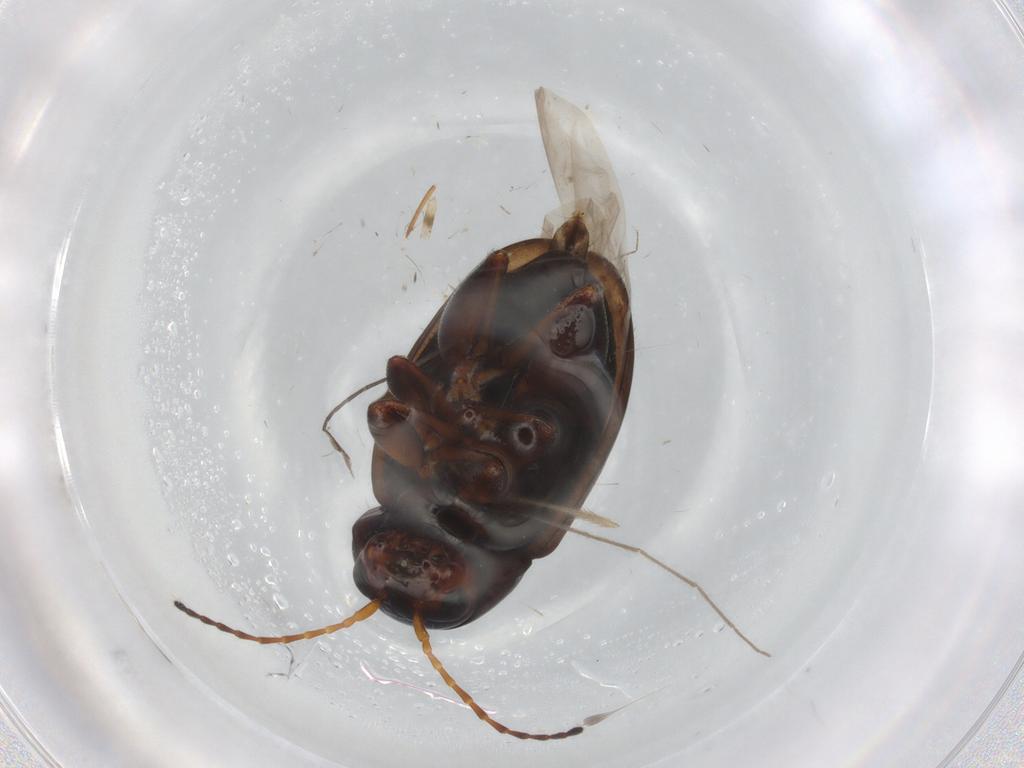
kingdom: Animalia
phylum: Arthropoda
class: Insecta
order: Coleoptera
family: Chrysomelidae
